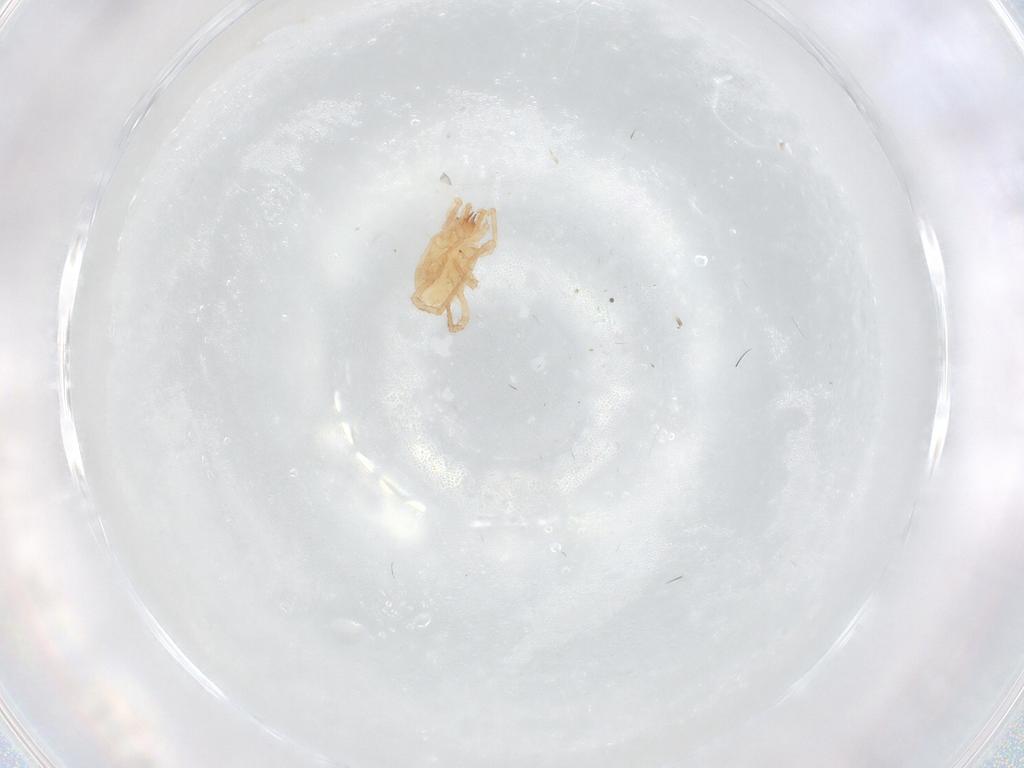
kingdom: Animalia
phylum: Arthropoda
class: Arachnida
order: Mesostigmata
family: Parasitidae
